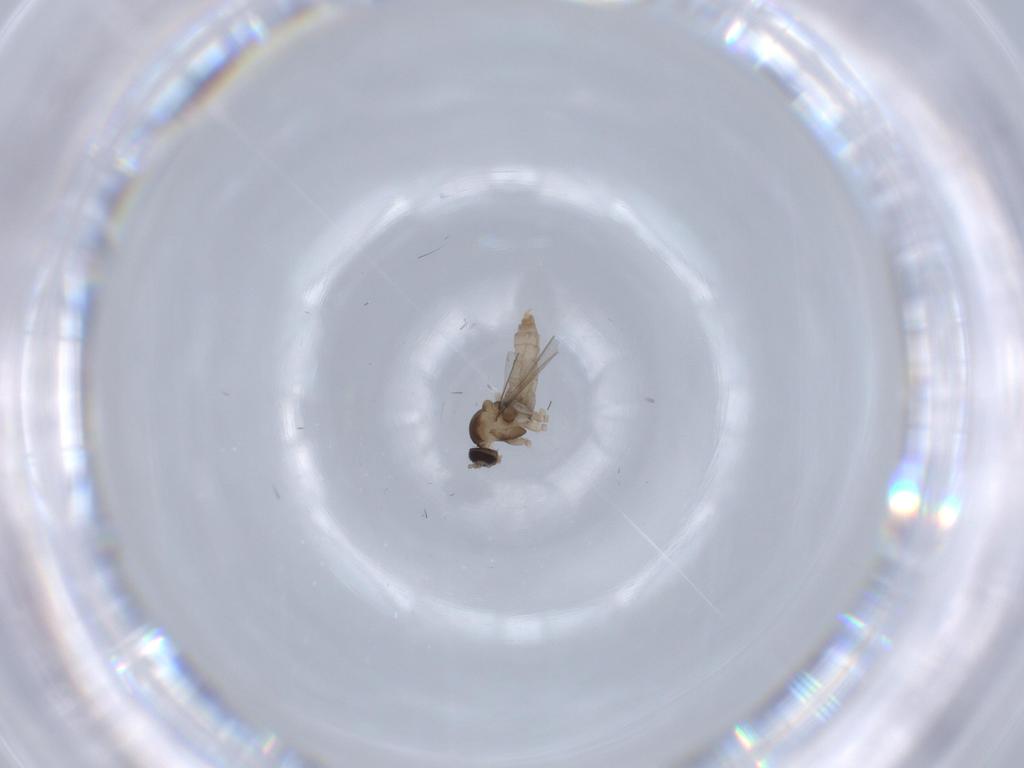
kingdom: Animalia
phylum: Arthropoda
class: Insecta
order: Diptera
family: Cecidomyiidae
